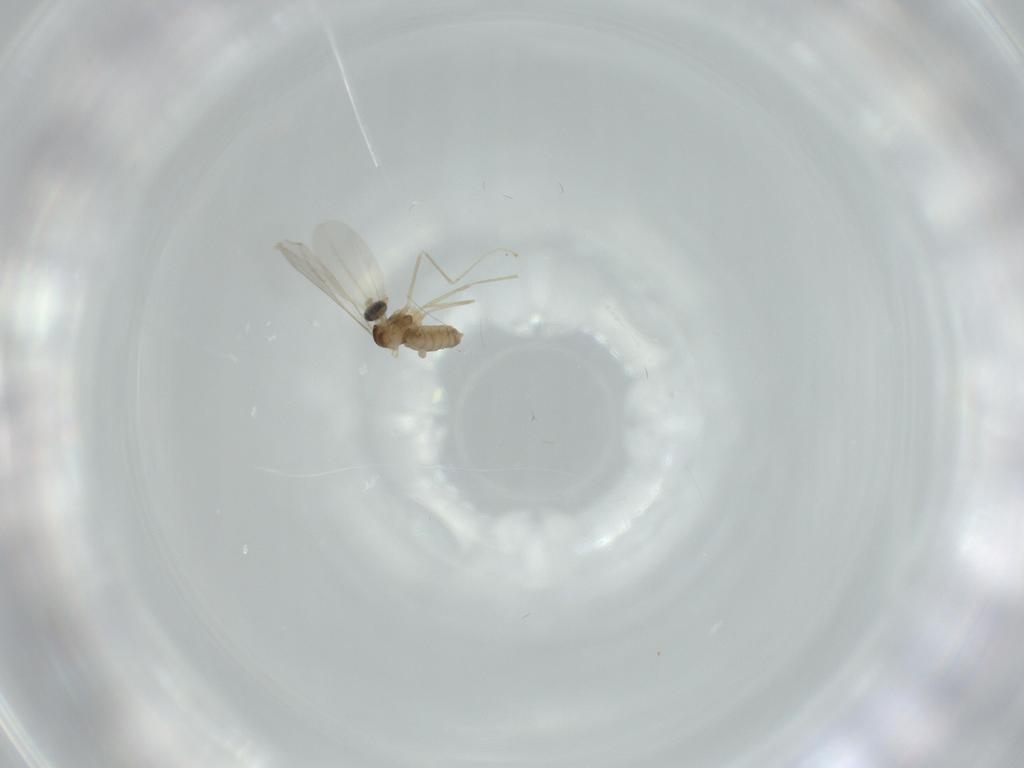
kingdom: Animalia
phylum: Arthropoda
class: Insecta
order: Diptera
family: Cecidomyiidae
